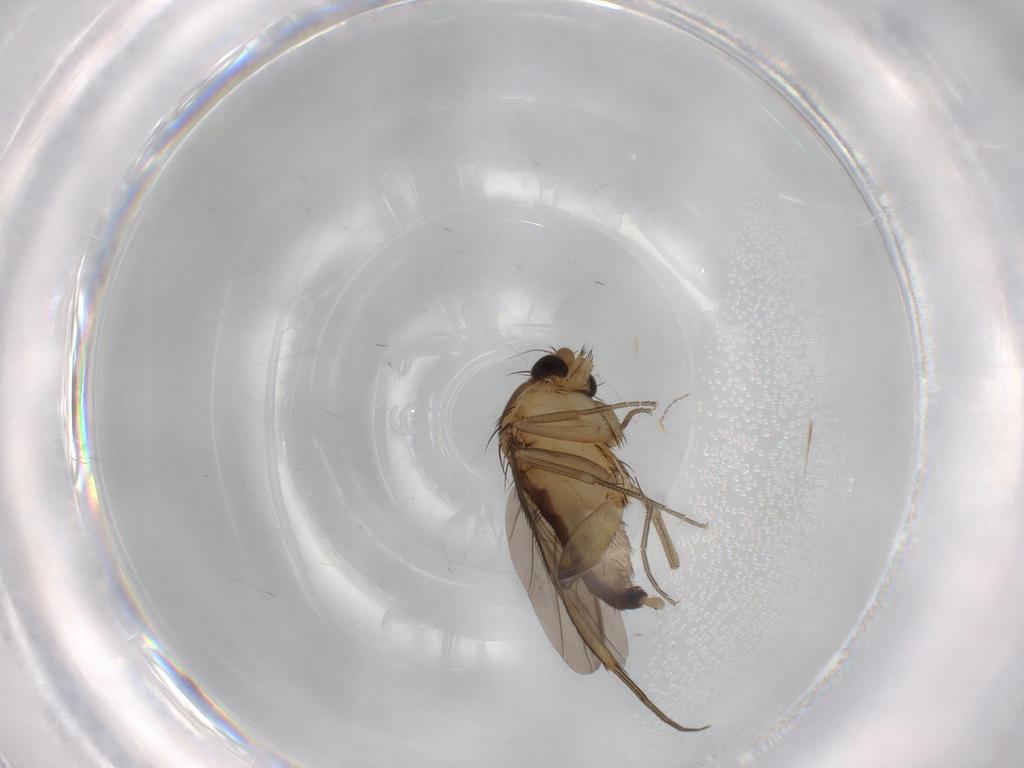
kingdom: Animalia
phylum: Arthropoda
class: Insecta
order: Diptera
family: Phoridae
